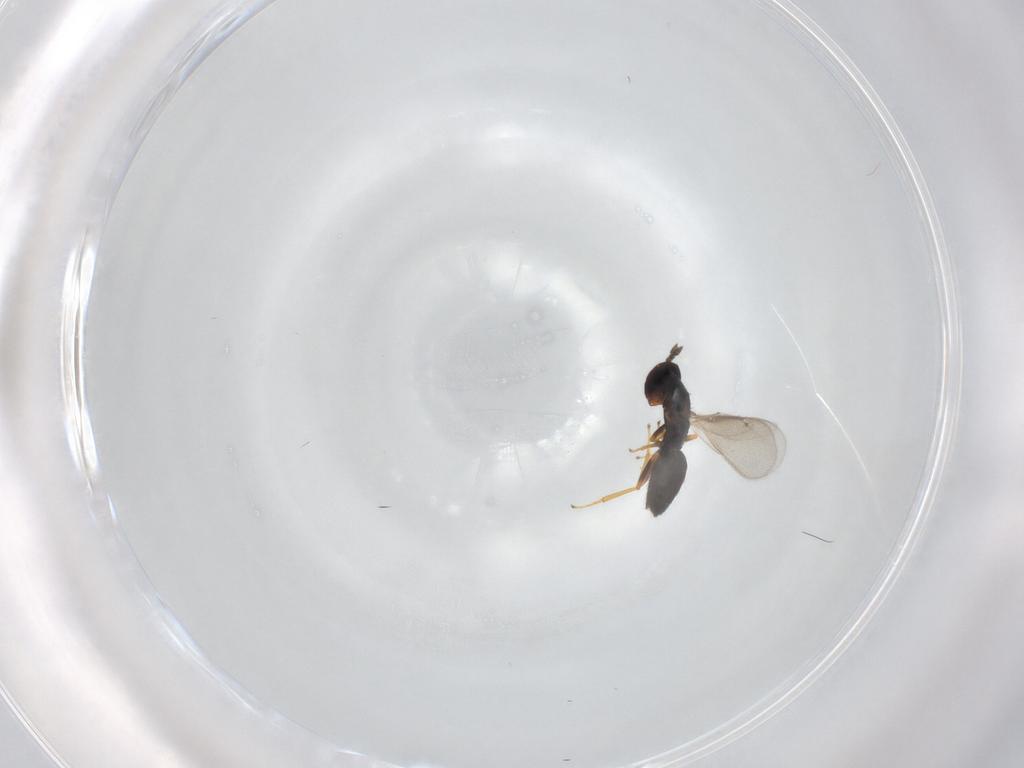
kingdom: Animalia
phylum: Arthropoda
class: Insecta
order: Hymenoptera
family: Eulophidae
